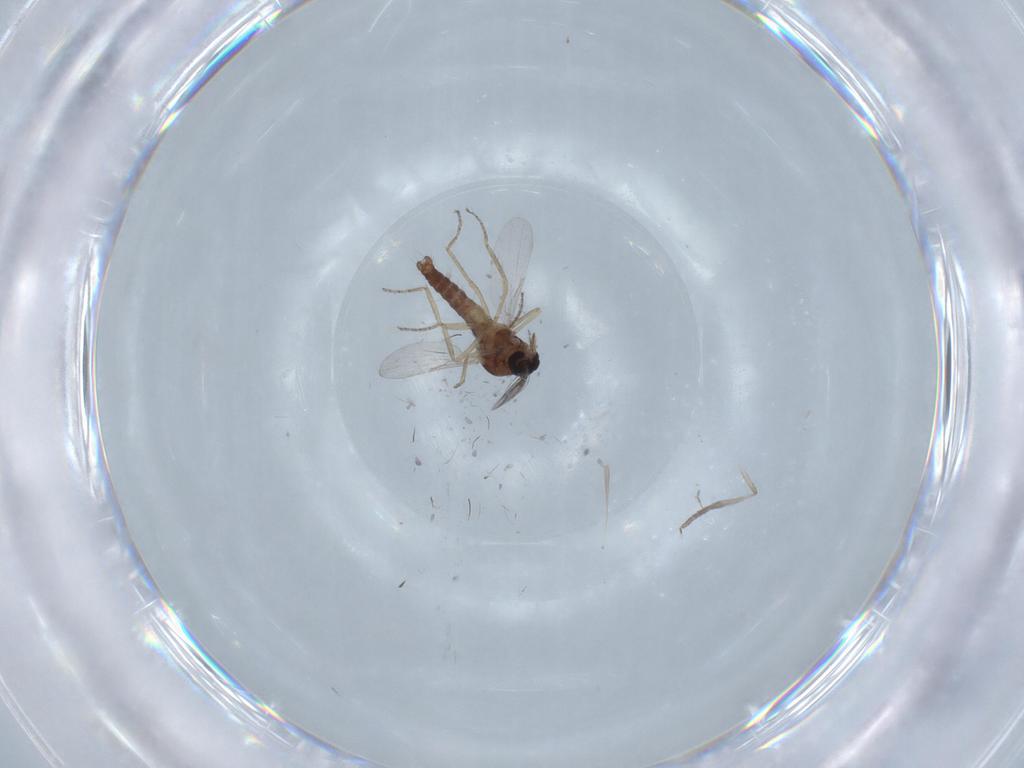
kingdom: Animalia
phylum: Arthropoda
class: Insecta
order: Diptera
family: Ceratopogonidae
